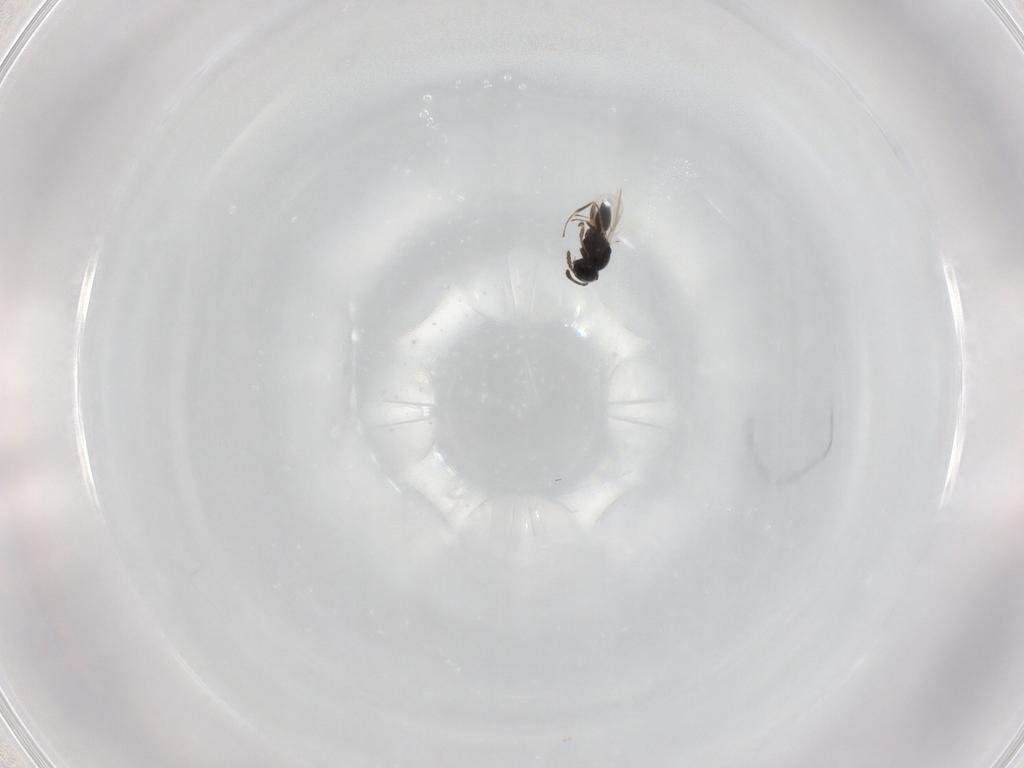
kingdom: Animalia
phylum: Arthropoda
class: Insecta
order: Hymenoptera
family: Scelionidae
